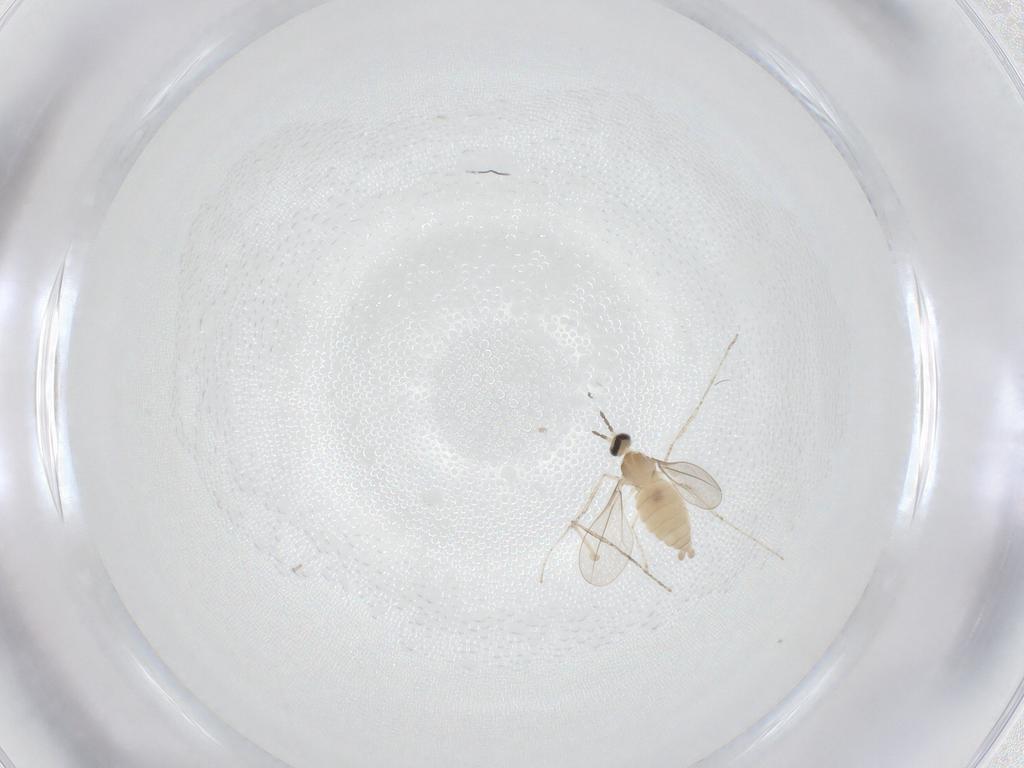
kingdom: Animalia
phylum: Arthropoda
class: Insecta
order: Diptera
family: Cecidomyiidae
